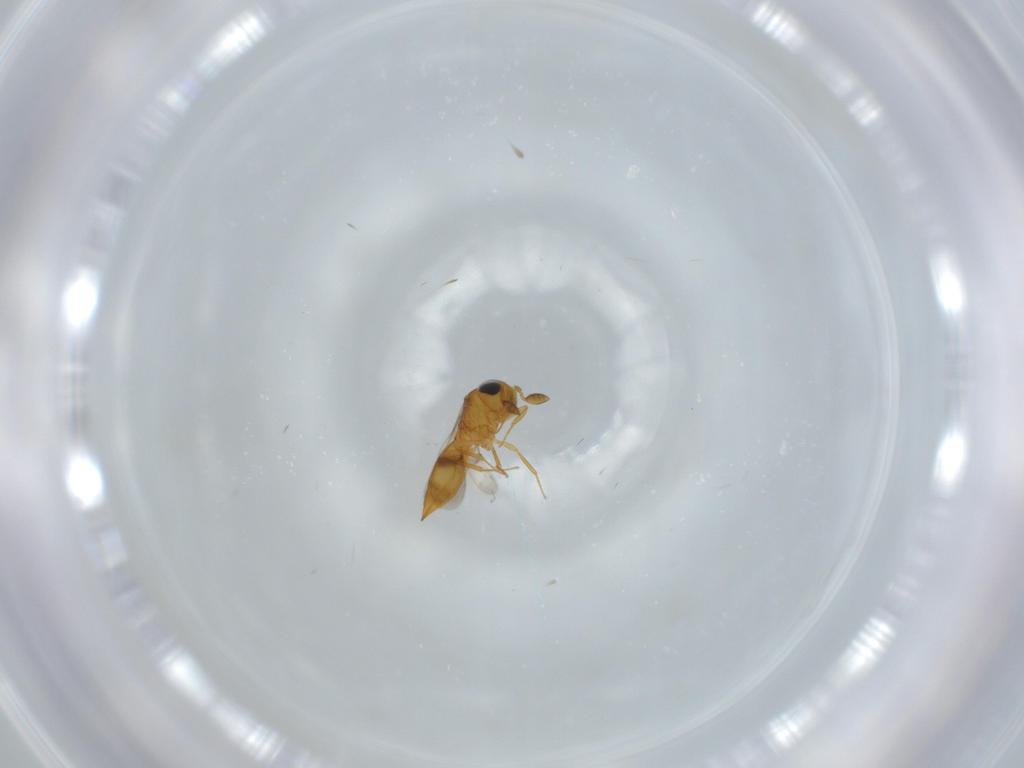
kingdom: Animalia
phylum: Arthropoda
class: Insecta
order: Hymenoptera
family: Scelionidae
